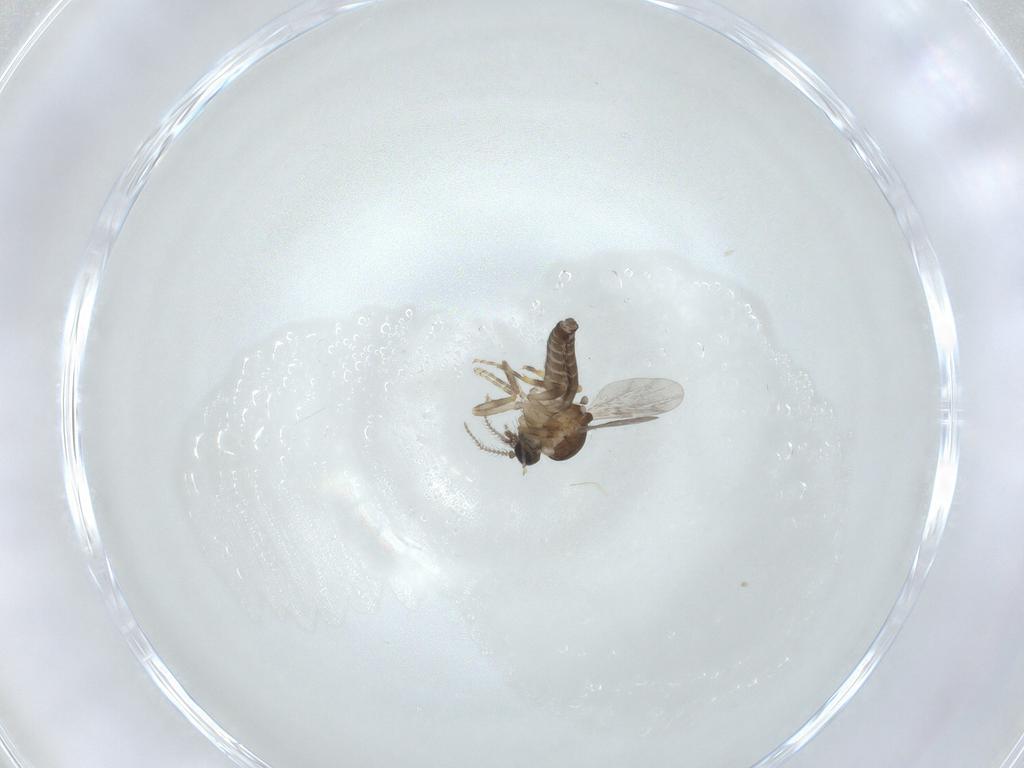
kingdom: Animalia
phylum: Arthropoda
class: Insecta
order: Diptera
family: Ceratopogonidae
